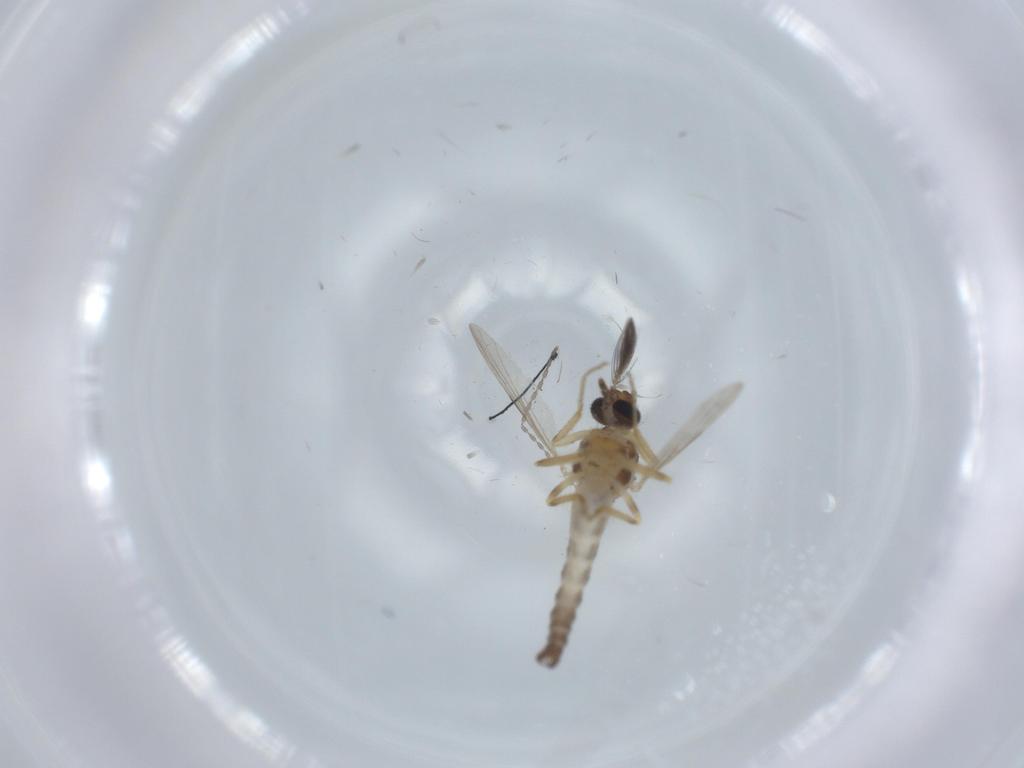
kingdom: Animalia
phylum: Arthropoda
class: Insecta
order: Diptera
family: Ceratopogonidae
